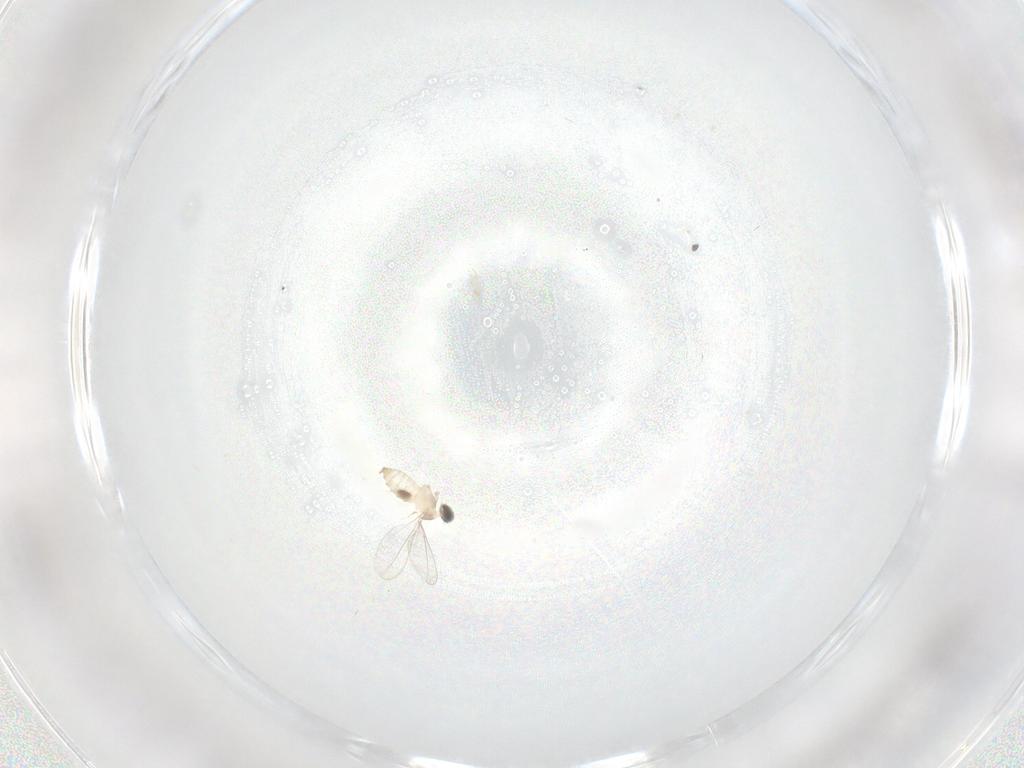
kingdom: Animalia
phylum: Arthropoda
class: Insecta
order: Diptera
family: Cecidomyiidae
